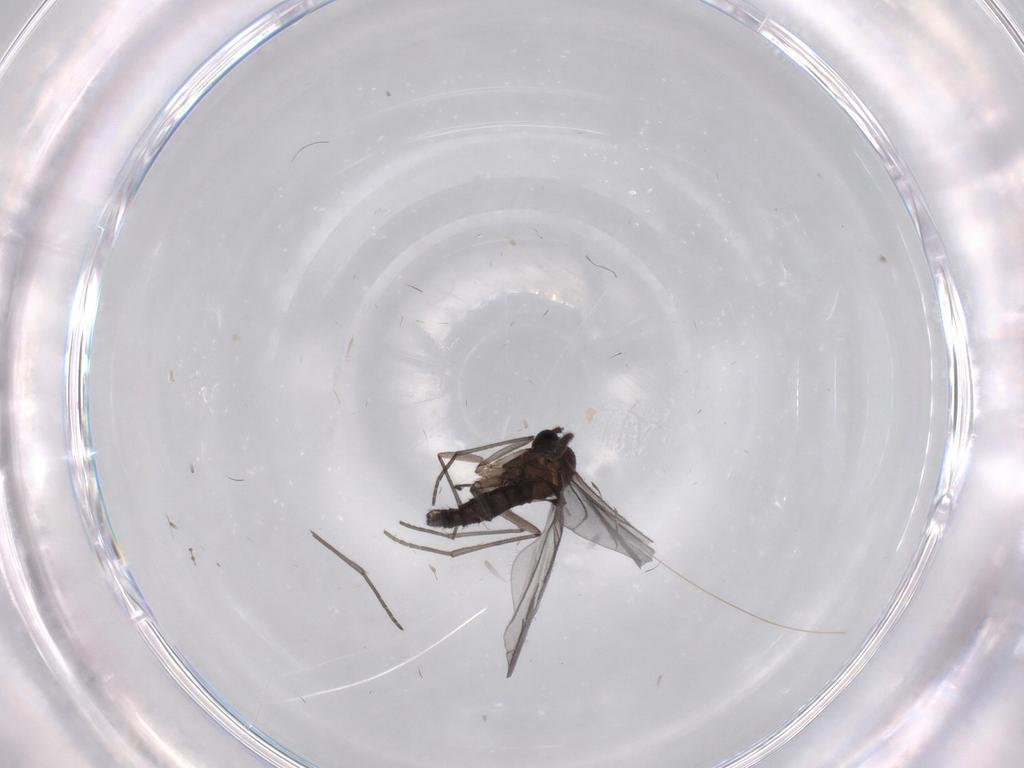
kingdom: Animalia
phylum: Arthropoda
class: Insecta
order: Diptera
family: Sciaridae
